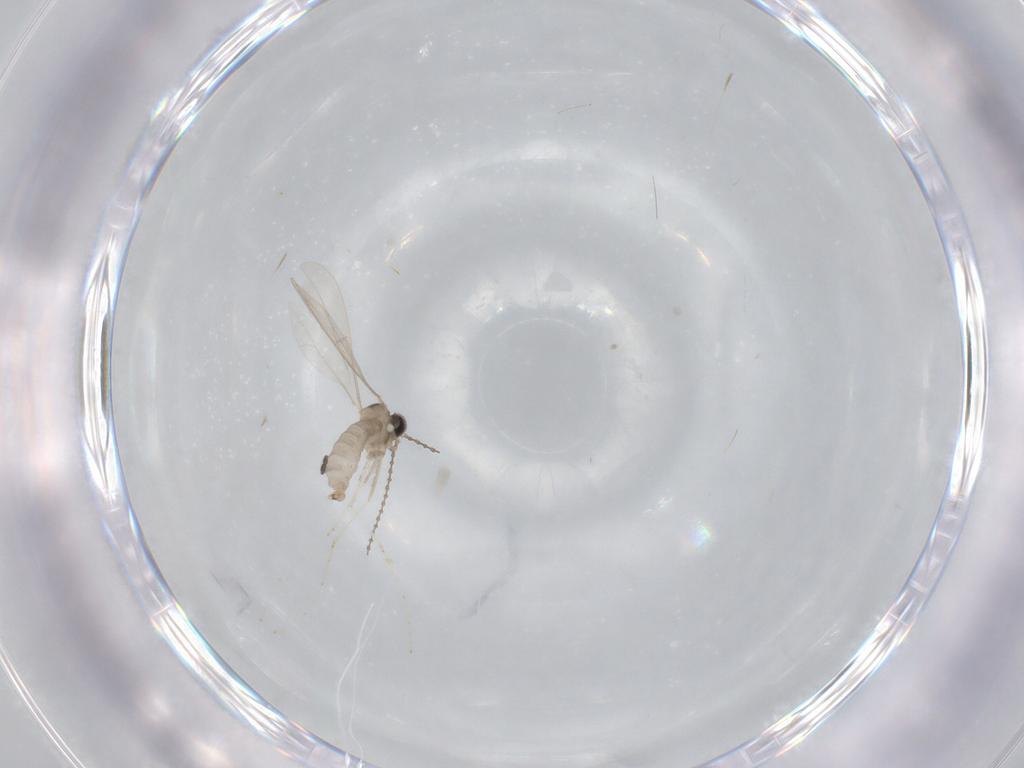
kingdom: Animalia
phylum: Arthropoda
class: Insecta
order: Diptera
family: Cecidomyiidae
